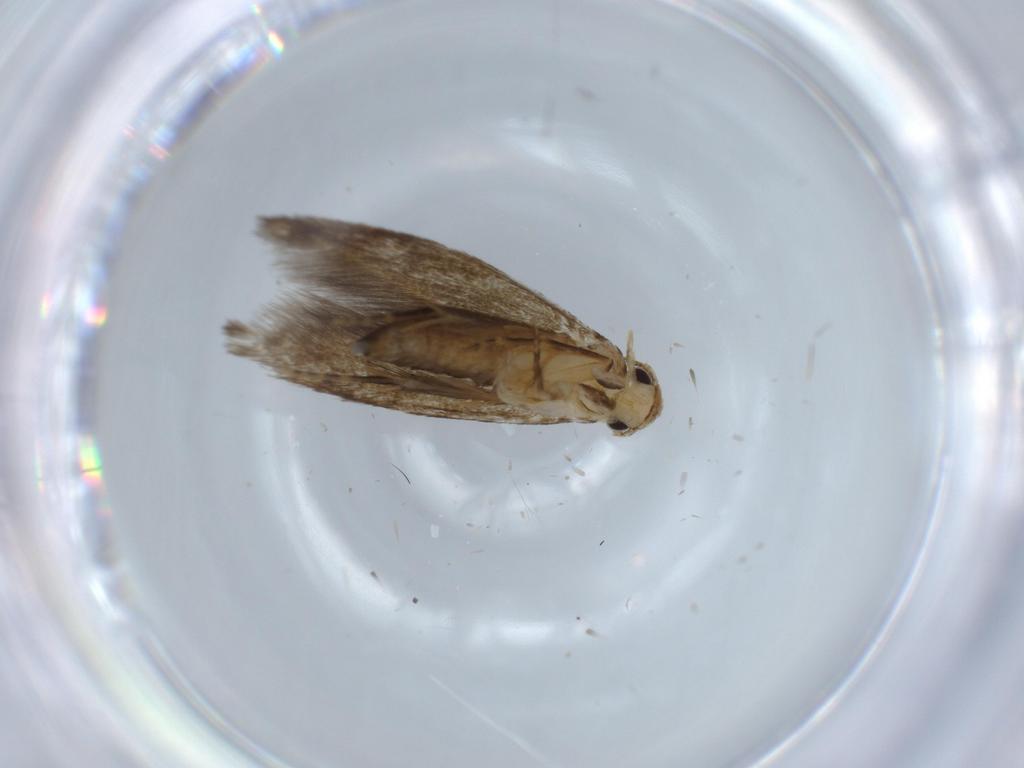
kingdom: Animalia
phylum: Arthropoda
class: Insecta
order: Lepidoptera
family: Tineidae
